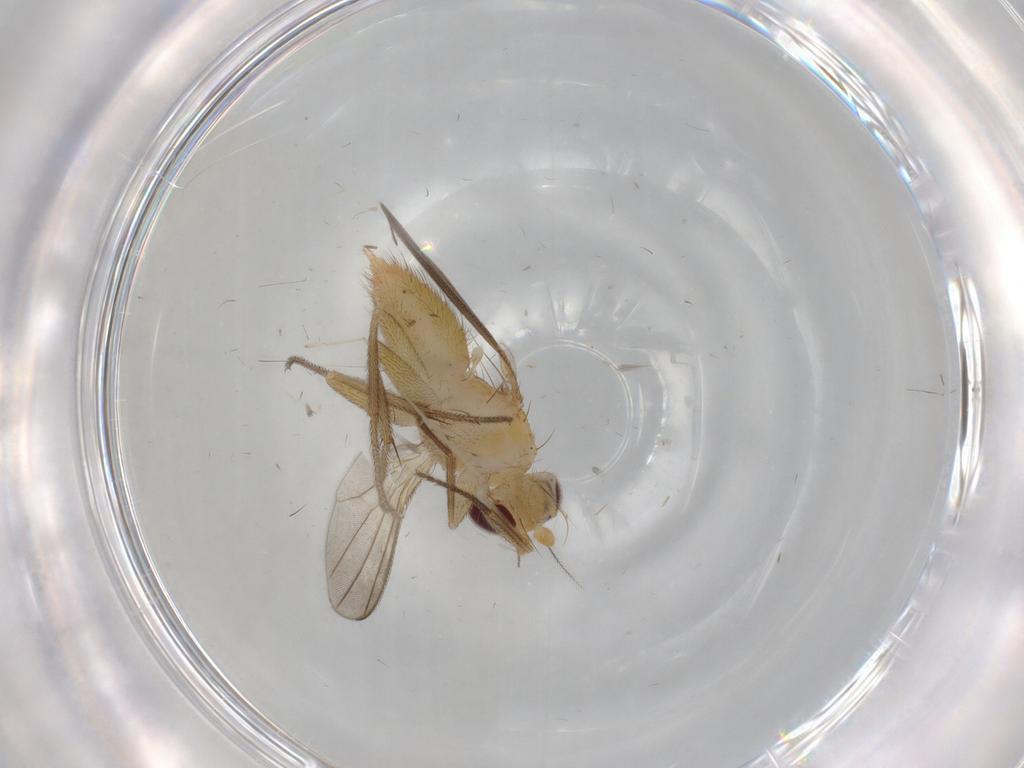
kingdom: Animalia
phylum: Arthropoda
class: Insecta
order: Diptera
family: Clusiidae
